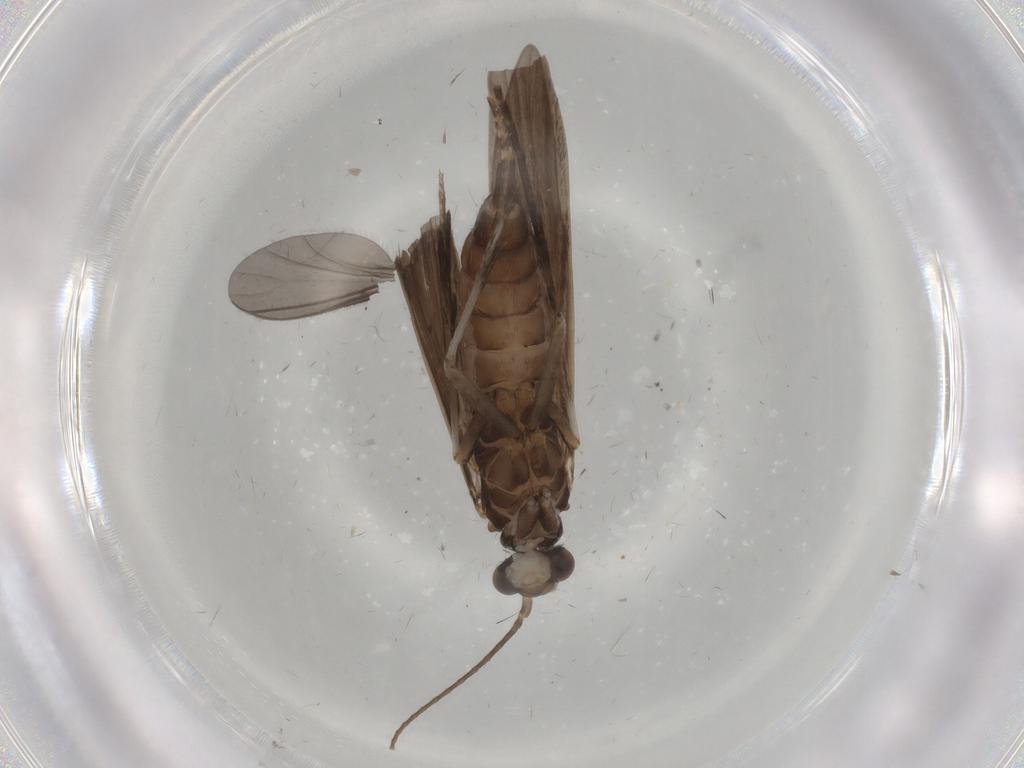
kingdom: Animalia
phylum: Arthropoda
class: Insecta
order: Trichoptera
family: Xiphocentronidae
